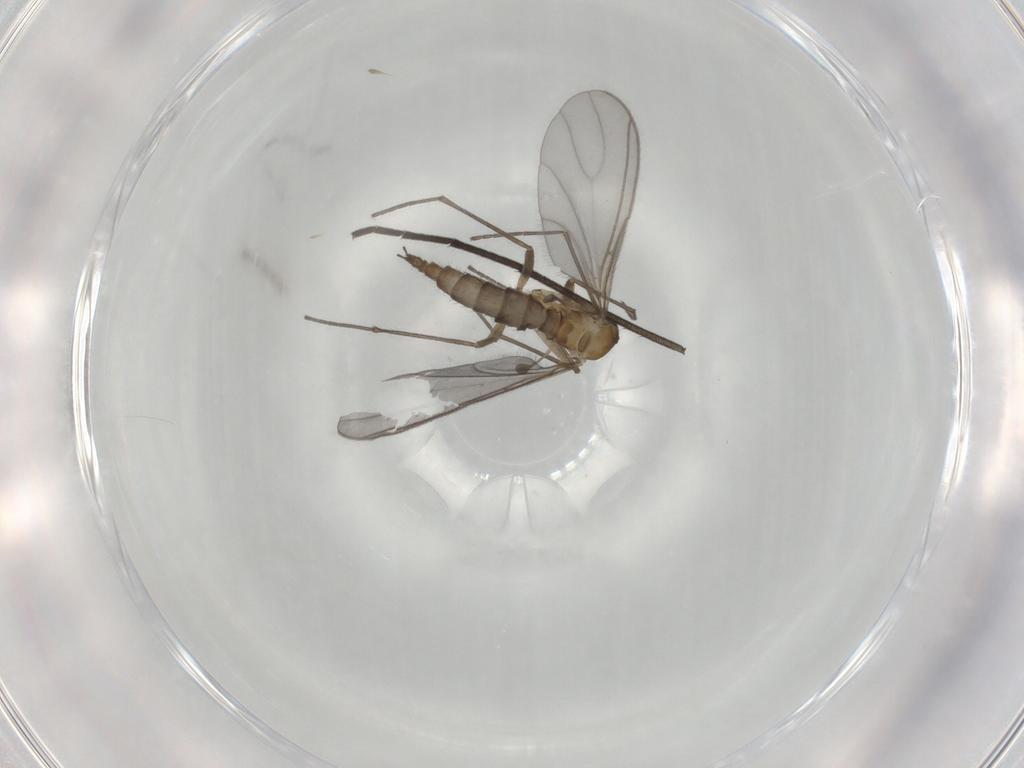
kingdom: Animalia
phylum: Arthropoda
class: Insecta
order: Diptera
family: Sciaridae
